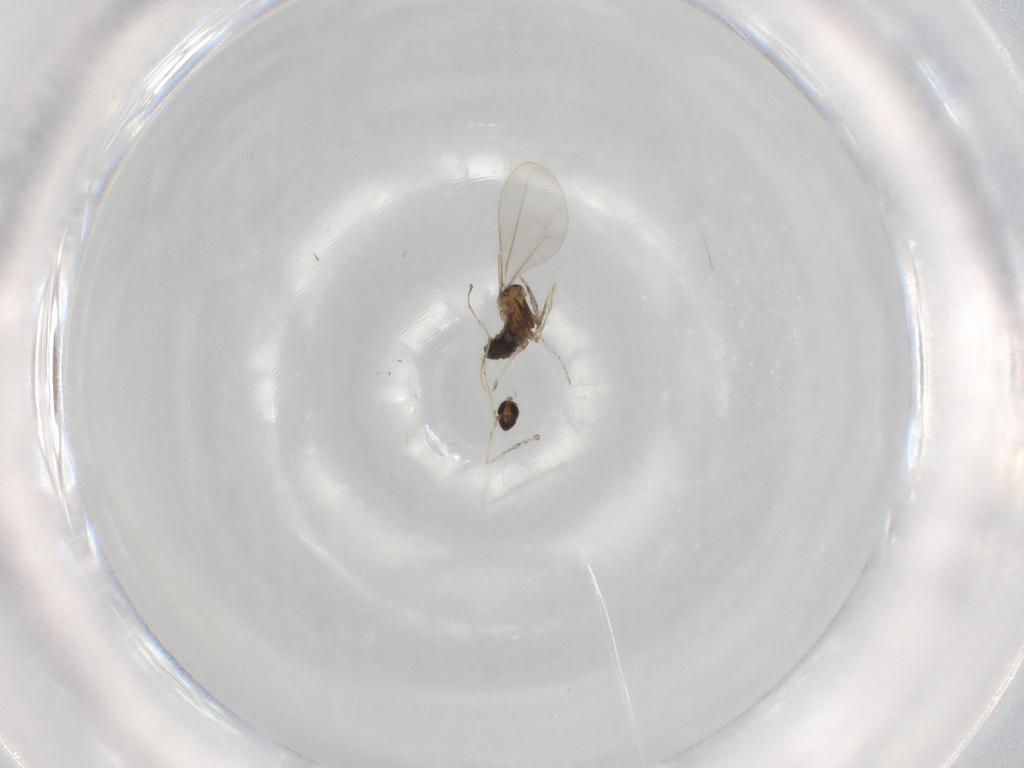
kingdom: Animalia
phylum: Arthropoda
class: Insecta
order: Diptera
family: Cecidomyiidae
